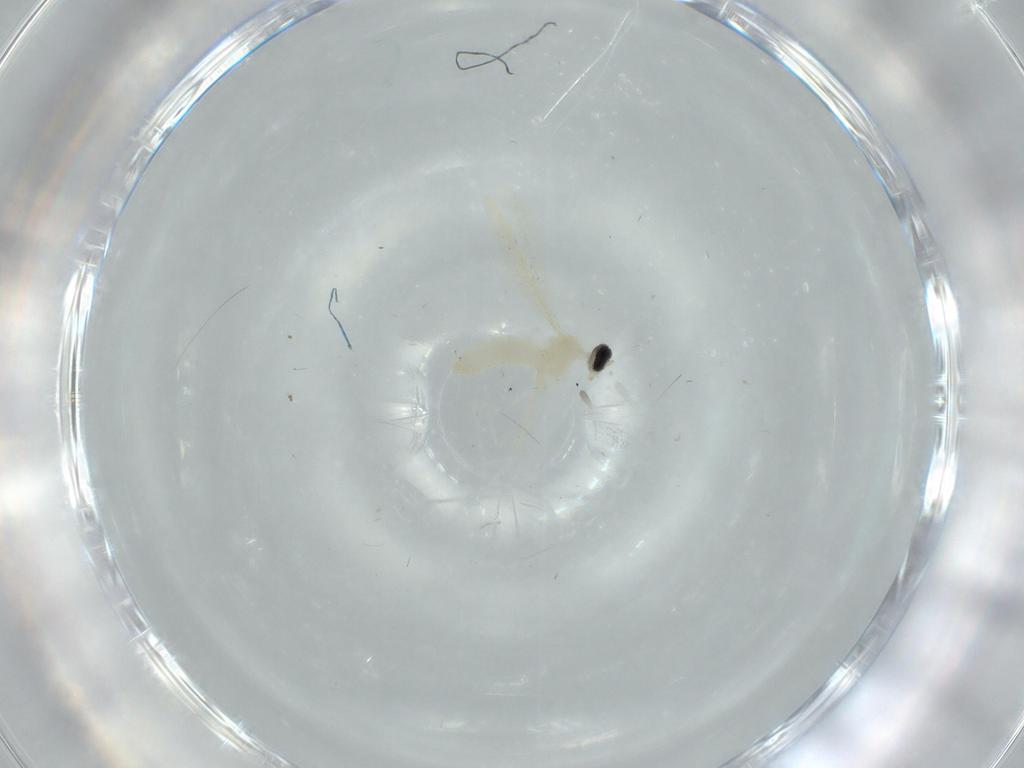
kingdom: Animalia
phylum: Arthropoda
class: Insecta
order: Diptera
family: Cecidomyiidae
